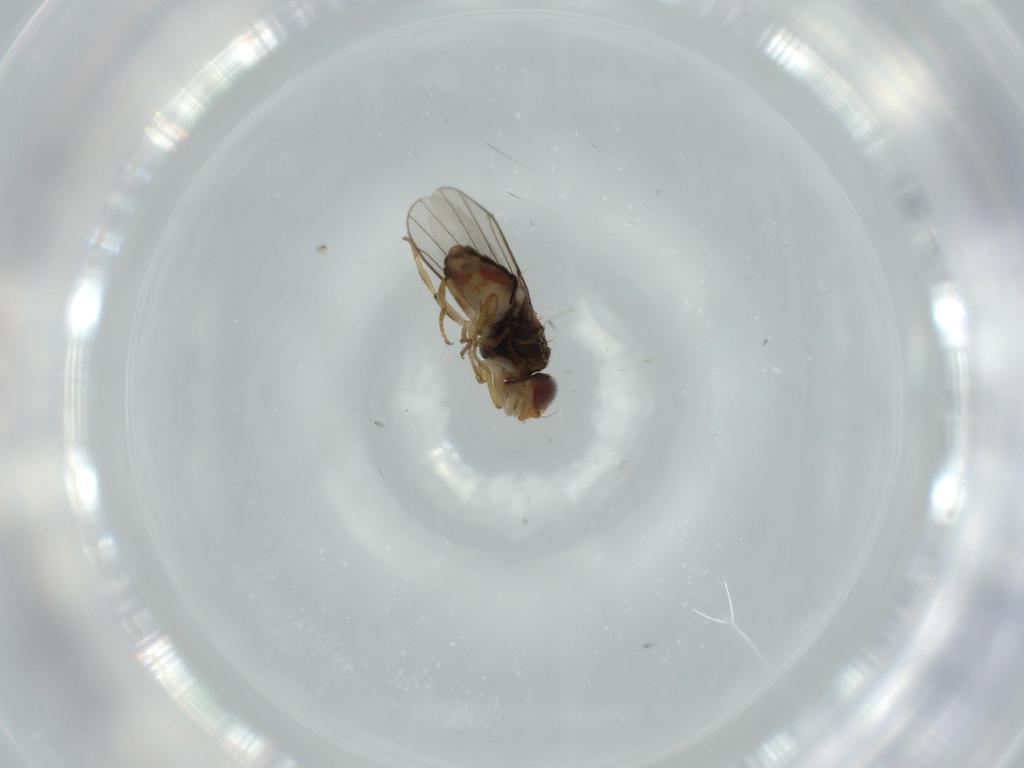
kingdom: Animalia
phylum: Arthropoda
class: Insecta
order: Diptera
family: Chloropidae
